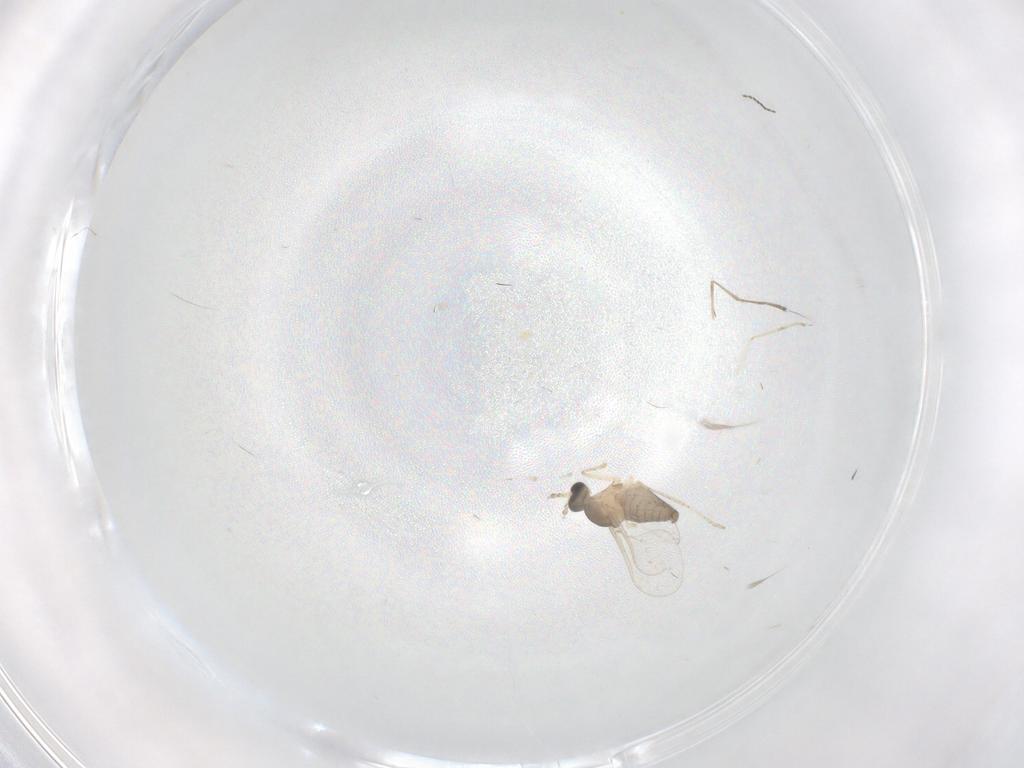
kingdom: Animalia
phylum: Arthropoda
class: Insecta
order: Diptera
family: Cecidomyiidae
